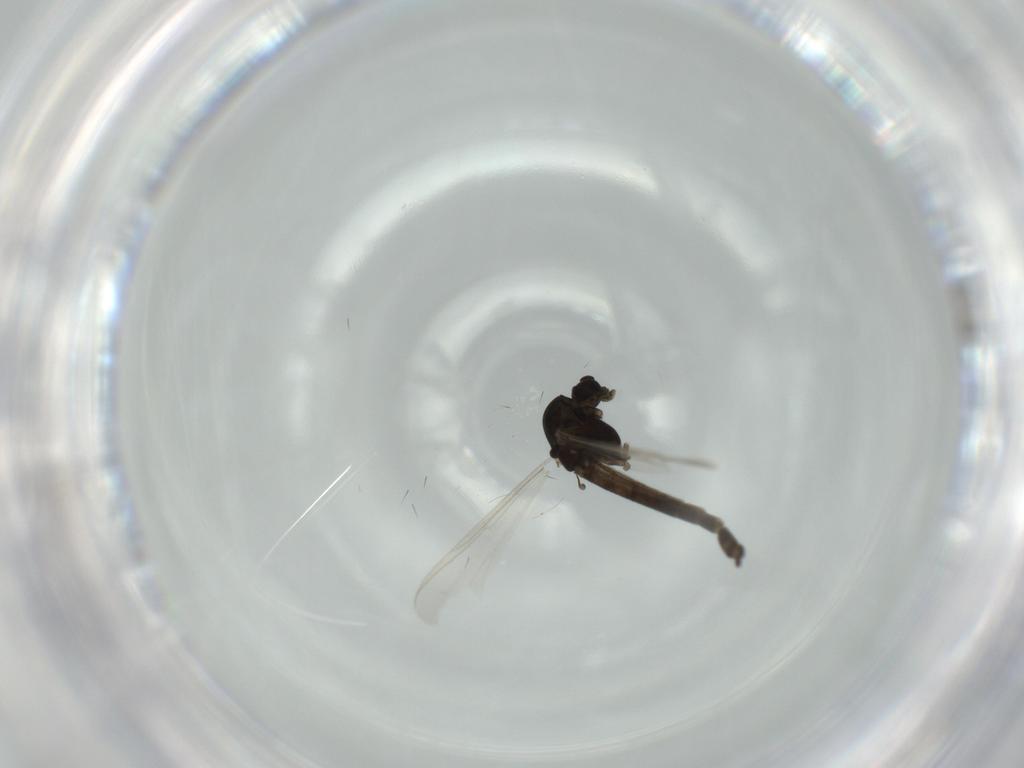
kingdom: Animalia
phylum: Arthropoda
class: Insecta
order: Diptera
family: Chironomidae
